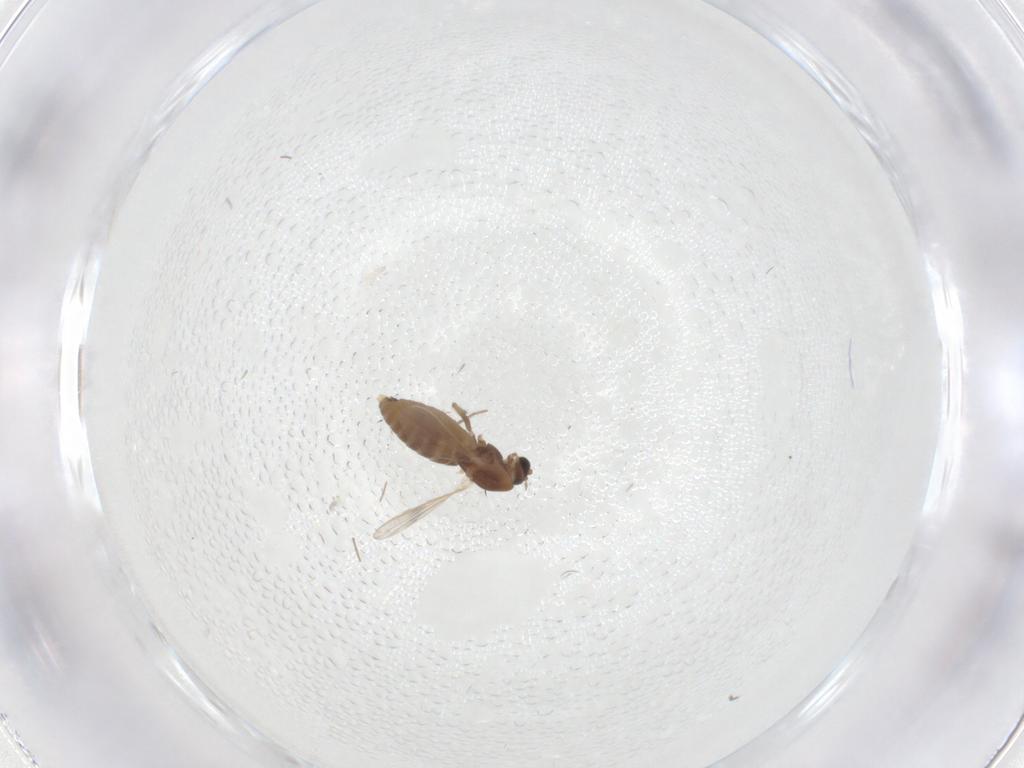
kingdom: Animalia
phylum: Arthropoda
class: Insecta
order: Diptera
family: Chironomidae
